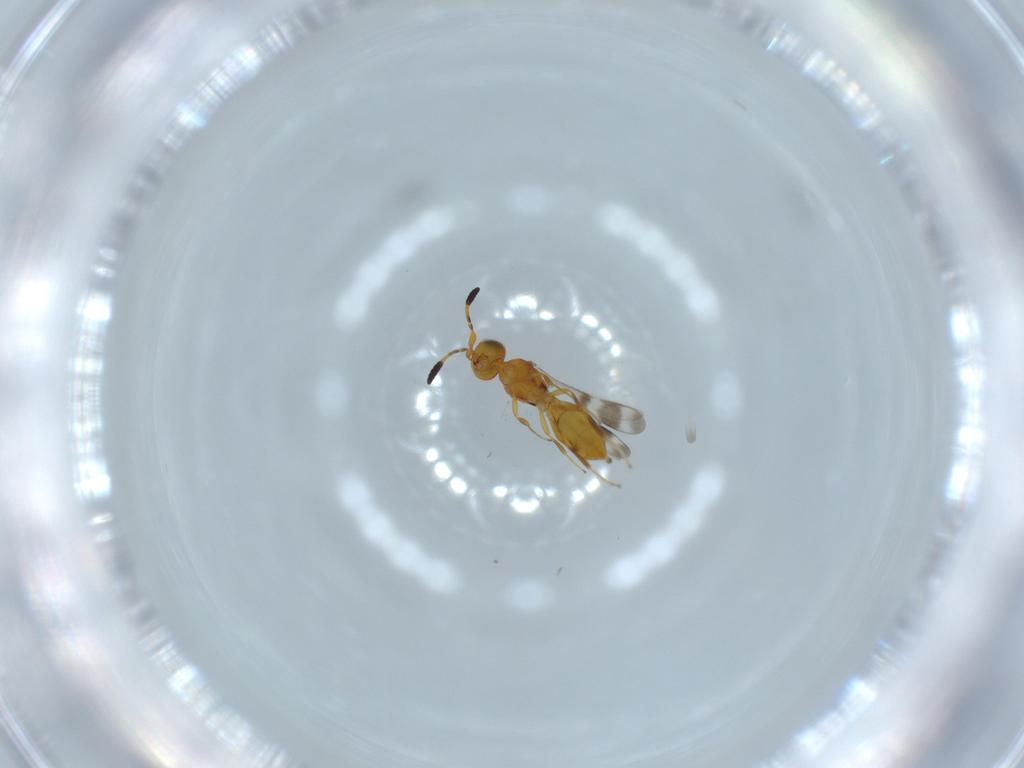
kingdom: Animalia
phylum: Arthropoda
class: Insecta
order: Hymenoptera
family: Scelionidae
